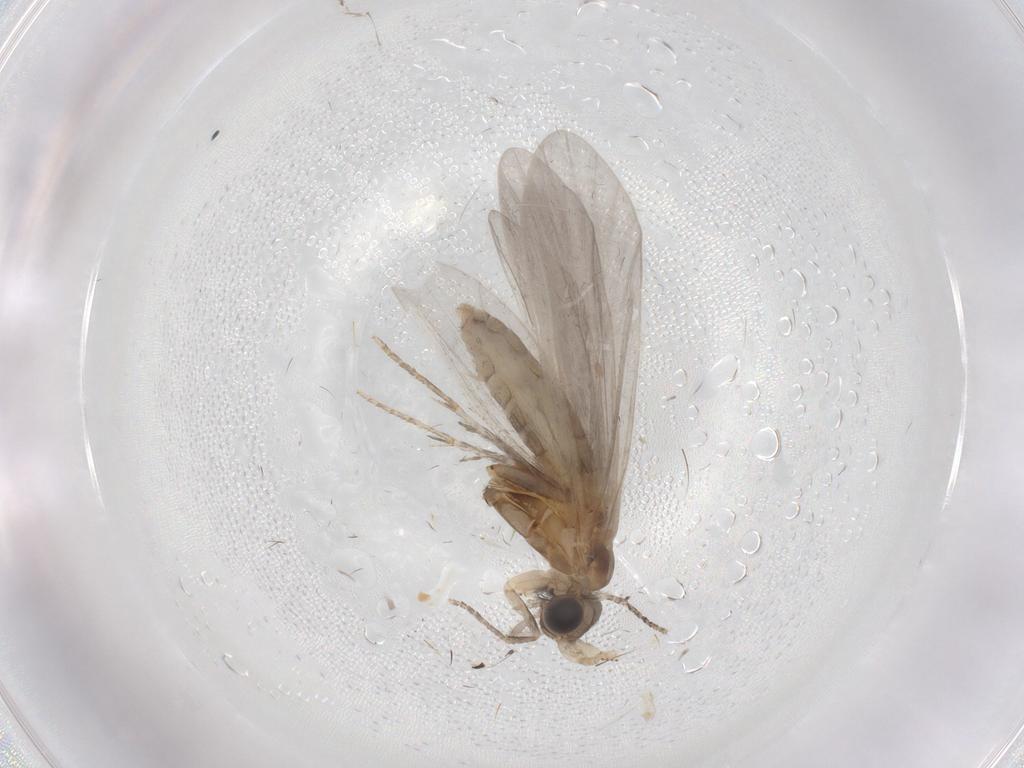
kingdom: Animalia
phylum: Arthropoda
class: Insecta
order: Trichoptera
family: Helicopsychidae
